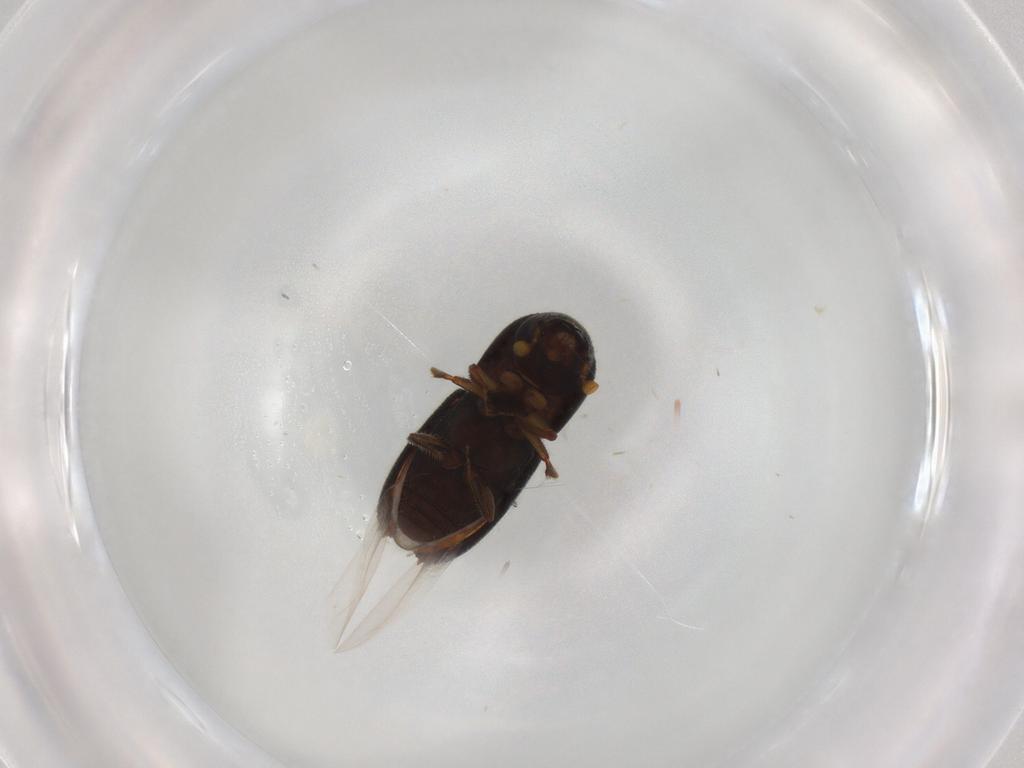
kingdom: Animalia
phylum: Arthropoda
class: Insecta
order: Coleoptera
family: Curculionidae
